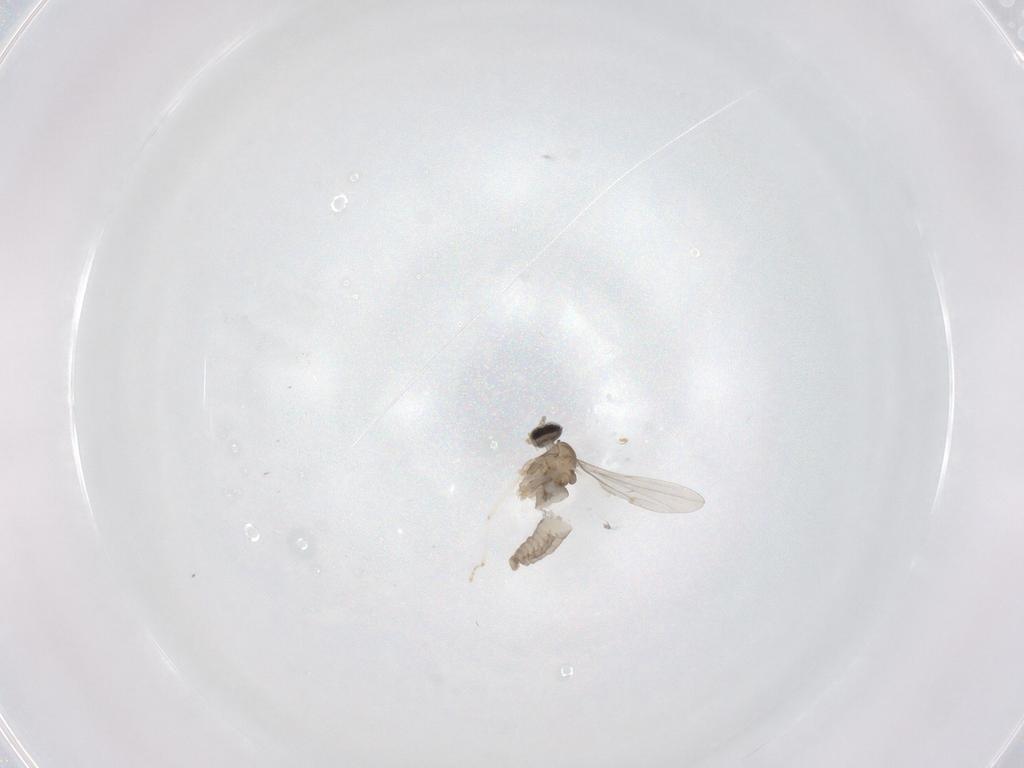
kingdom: Animalia
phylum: Arthropoda
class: Insecta
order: Diptera
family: Chironomidae
